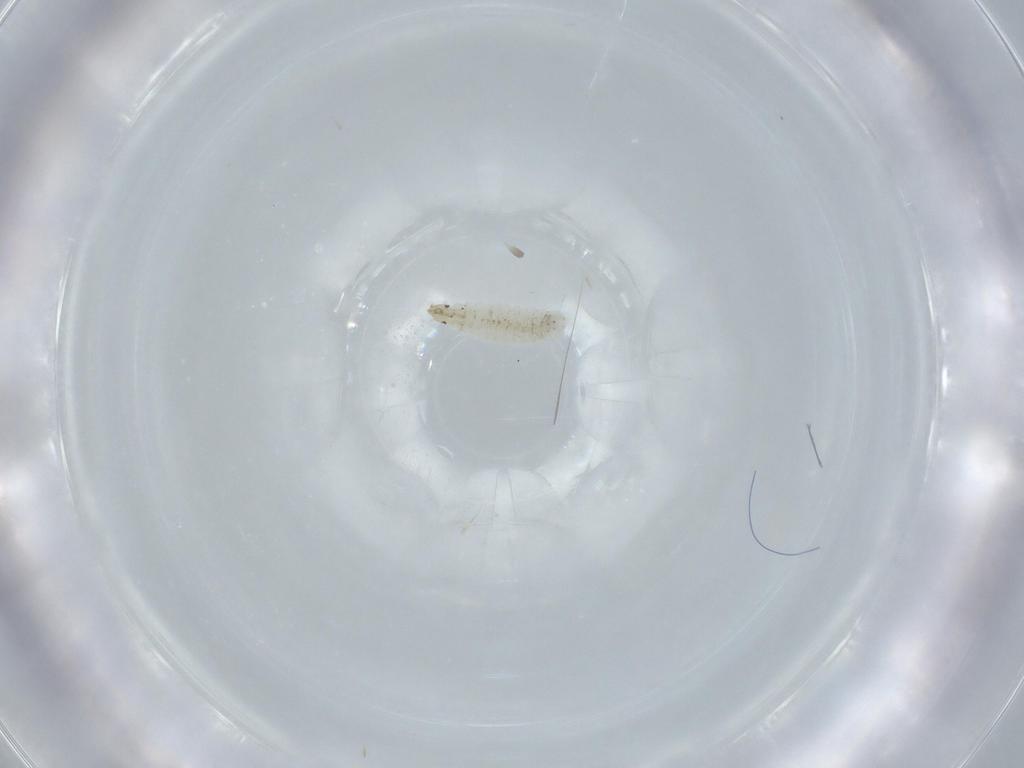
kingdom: Animalia
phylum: Arthropoda
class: Insecta
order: Diptera
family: Stratiomyidae
